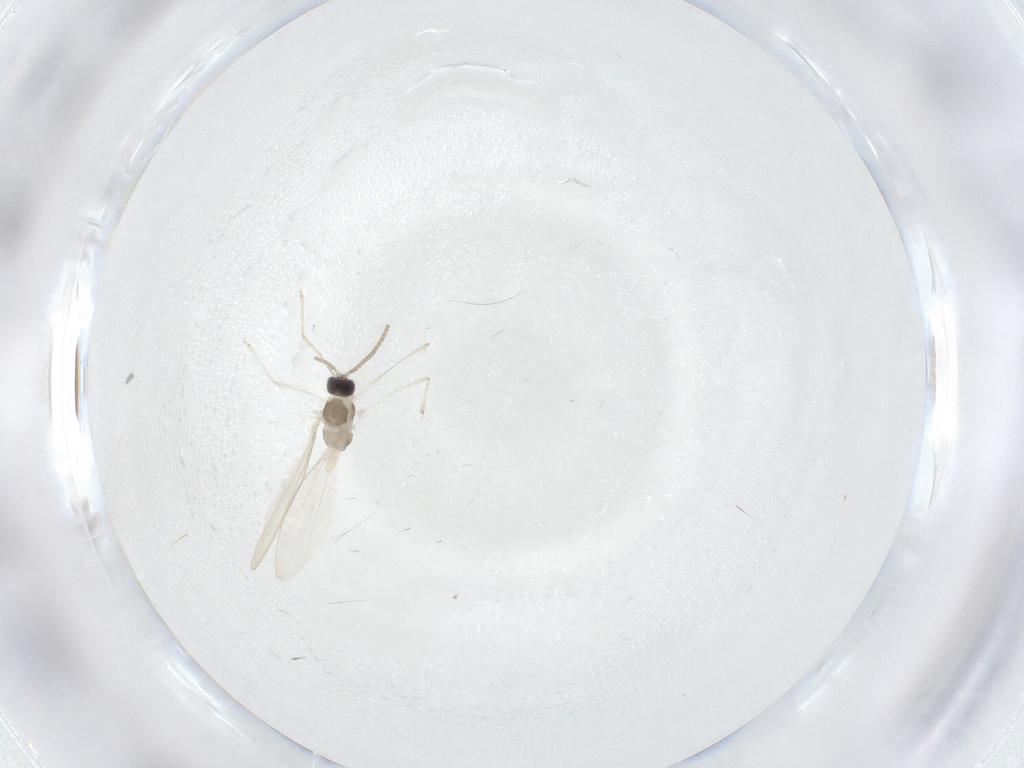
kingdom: Animalia
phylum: Arthropoda
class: Insecta
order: Diptera
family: Cecidomyiidae
